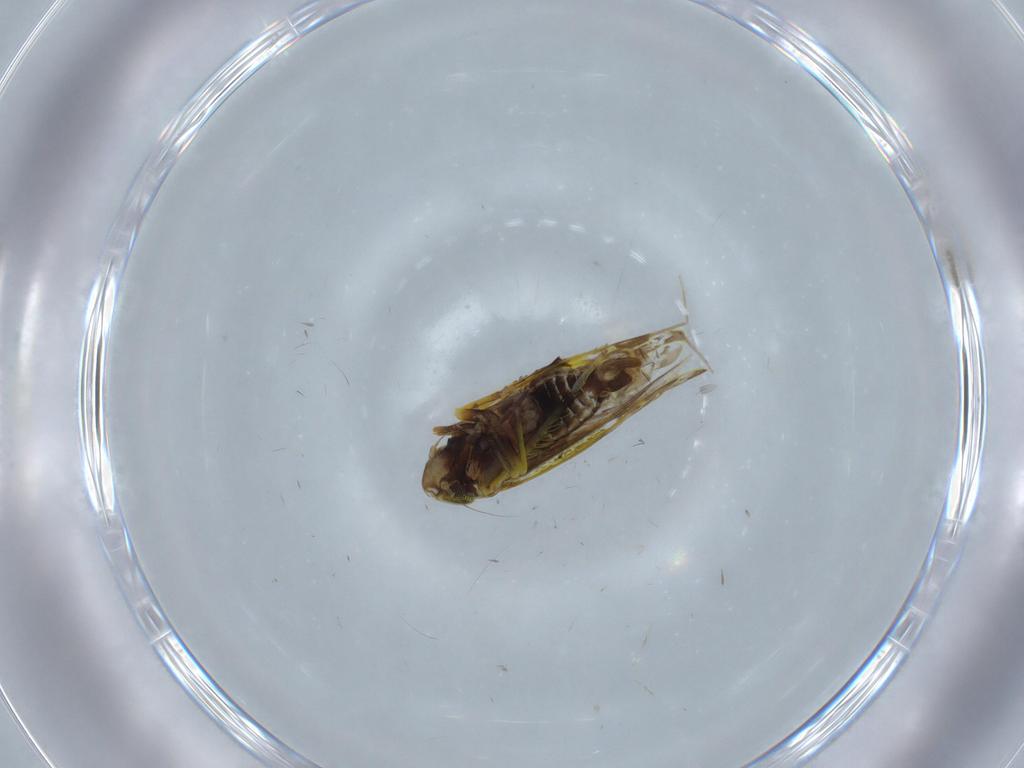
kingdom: Animalia
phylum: Arthropoda
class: Insecta
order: Hemiptera
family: Cicadellidae
